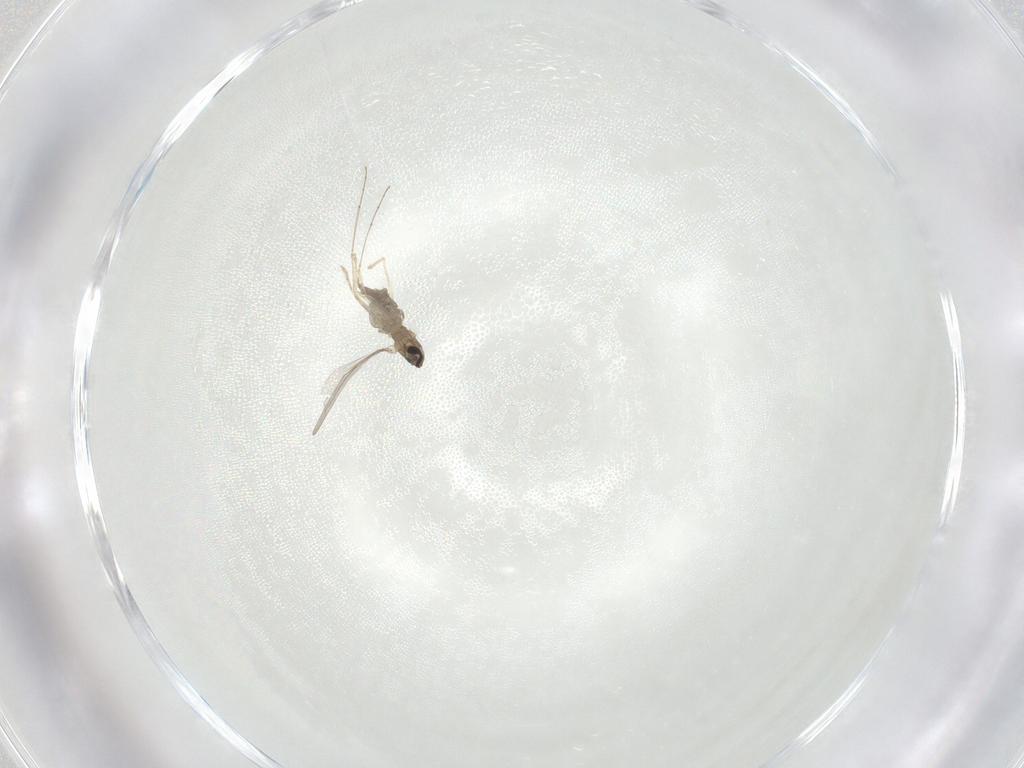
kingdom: Animalia
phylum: Arthropoda
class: Insecta
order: Diptera
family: Cecidomyiidae
